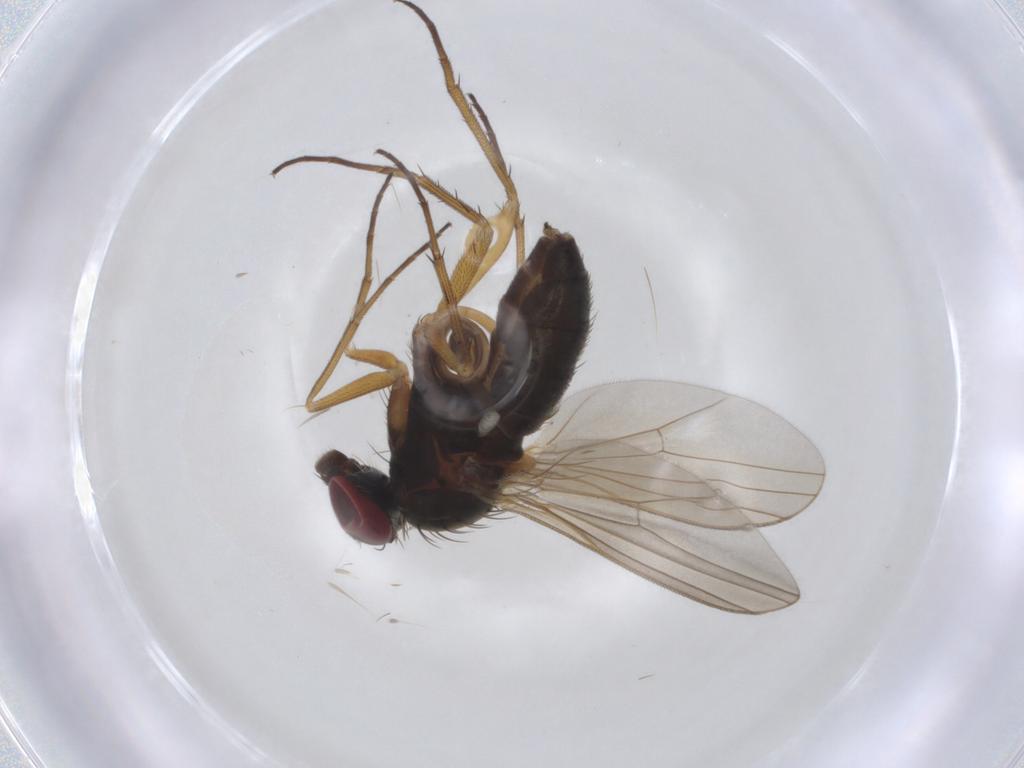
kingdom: Animalia
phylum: Arthropoda
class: Insecta
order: Diptera
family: Dolichopodidae
